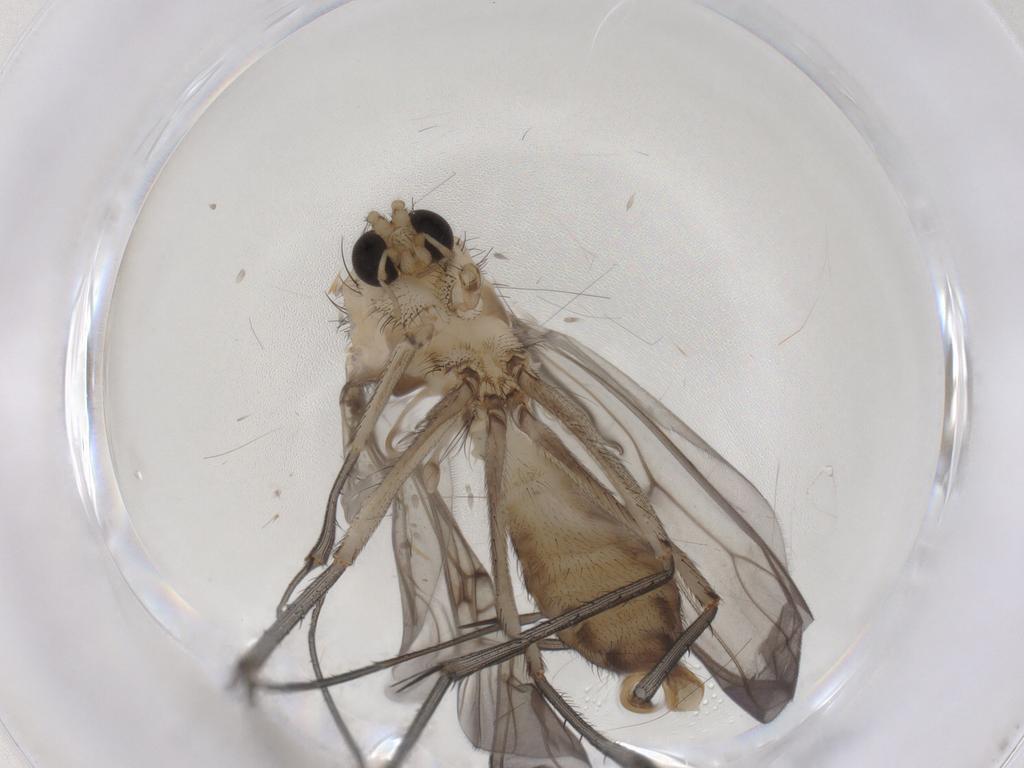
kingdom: Animalia
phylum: Arthropoda
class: Insecta
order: Diptera
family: Mycetophilidae
